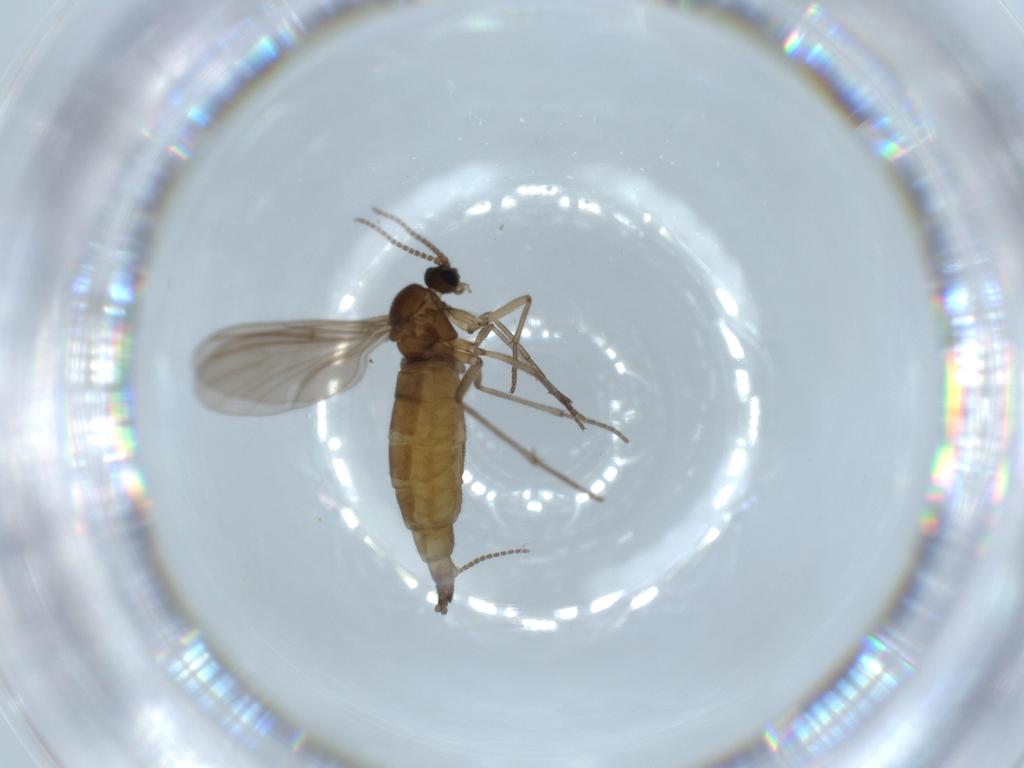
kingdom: Animalia
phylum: Arthropoda
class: Insecta
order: Diptera
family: Sciaridae
